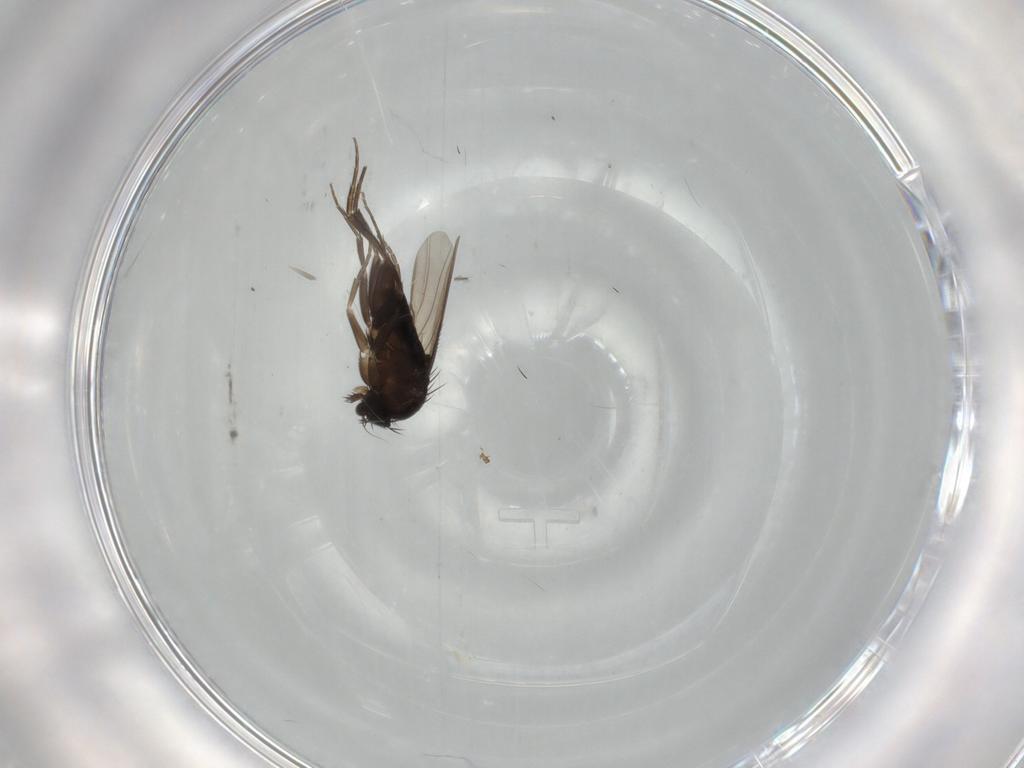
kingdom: Animalia
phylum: Arthropoda
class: Insecta
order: Diptera
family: Phoridae
